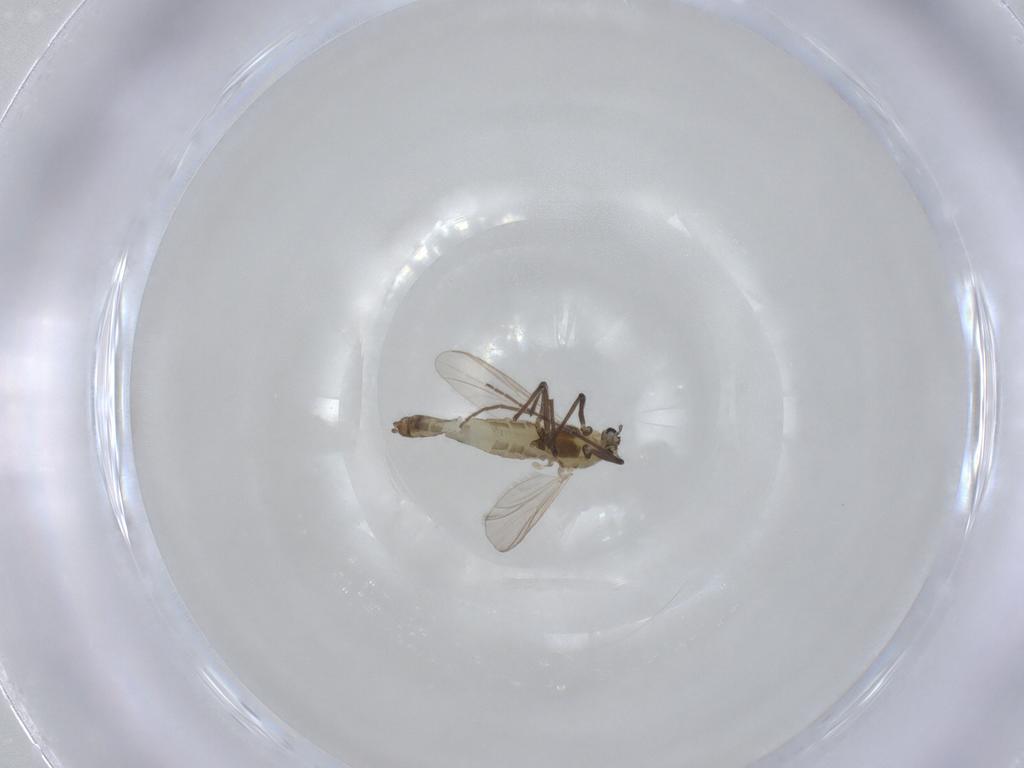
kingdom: Animalia
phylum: Arthropoda
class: Insecta
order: Diptera
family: Chironomidae
